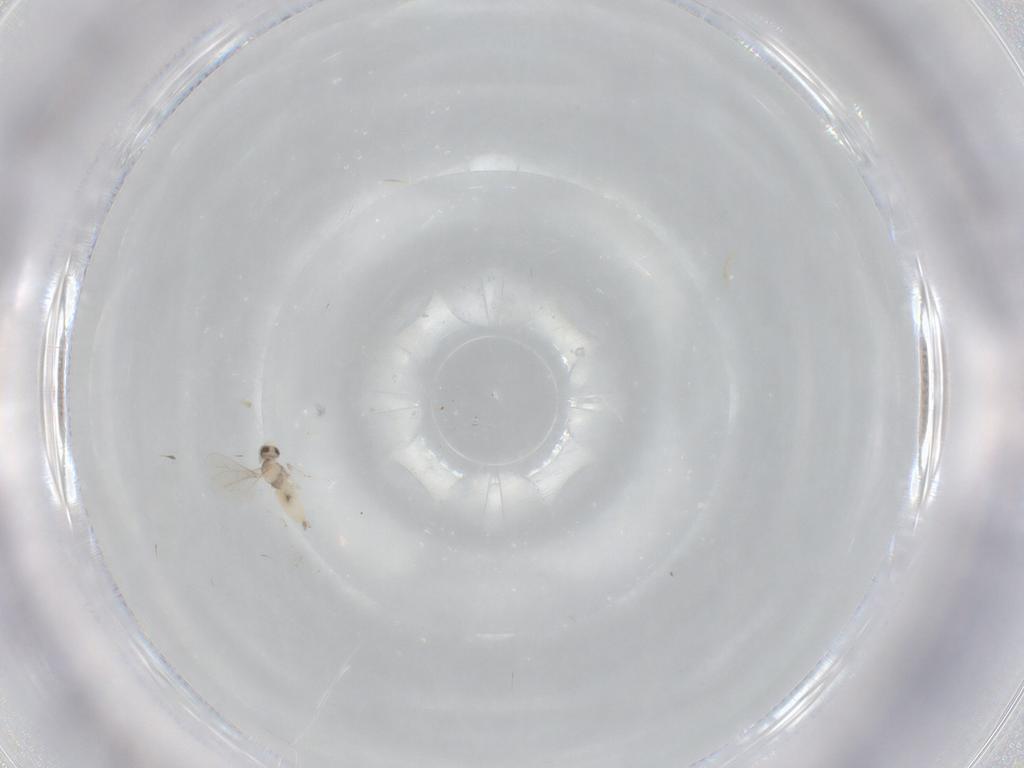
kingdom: Animalia
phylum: Arthropoda
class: Insecta
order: Diptera
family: Cecidomyiidae
